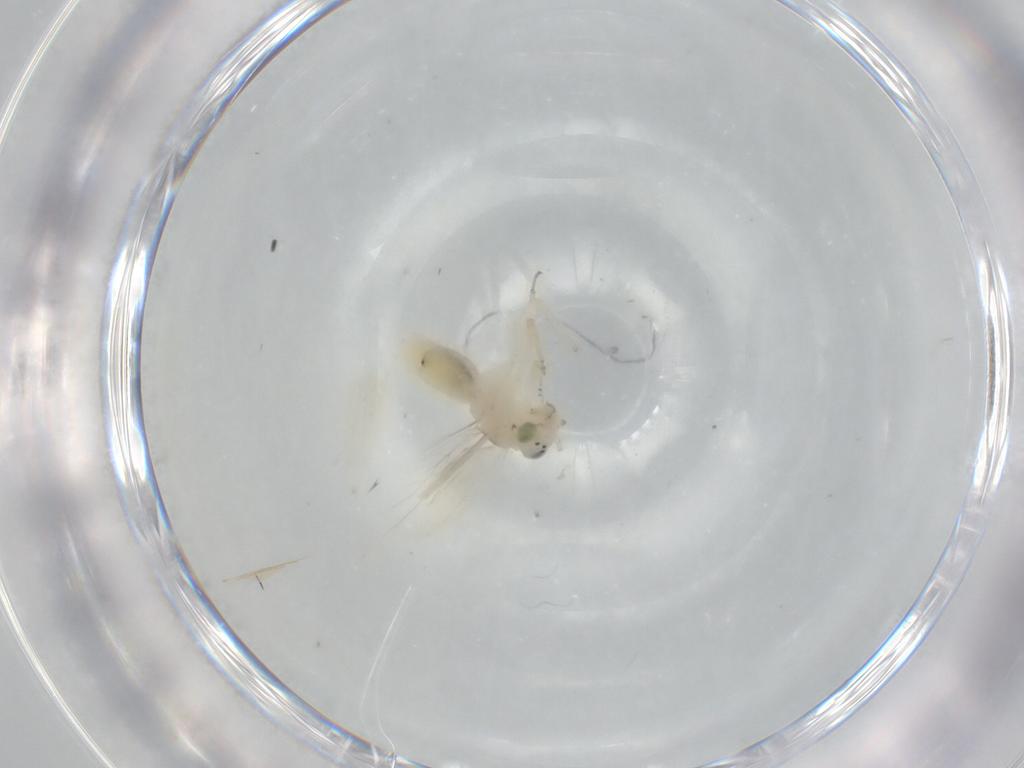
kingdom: Animalia
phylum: Arthropoda
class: Insecta
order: Psocodea
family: Lepidopsocidae
